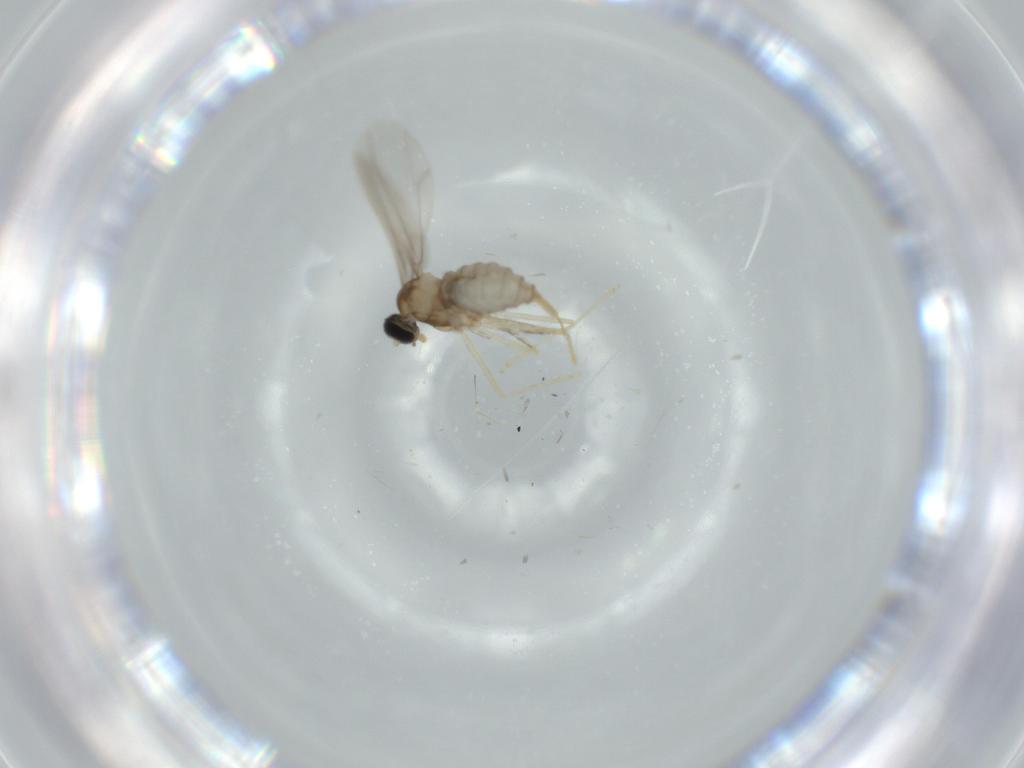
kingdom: Animalia
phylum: Arthropoda
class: Insecta
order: Diptera
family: Cecidomyiidae
